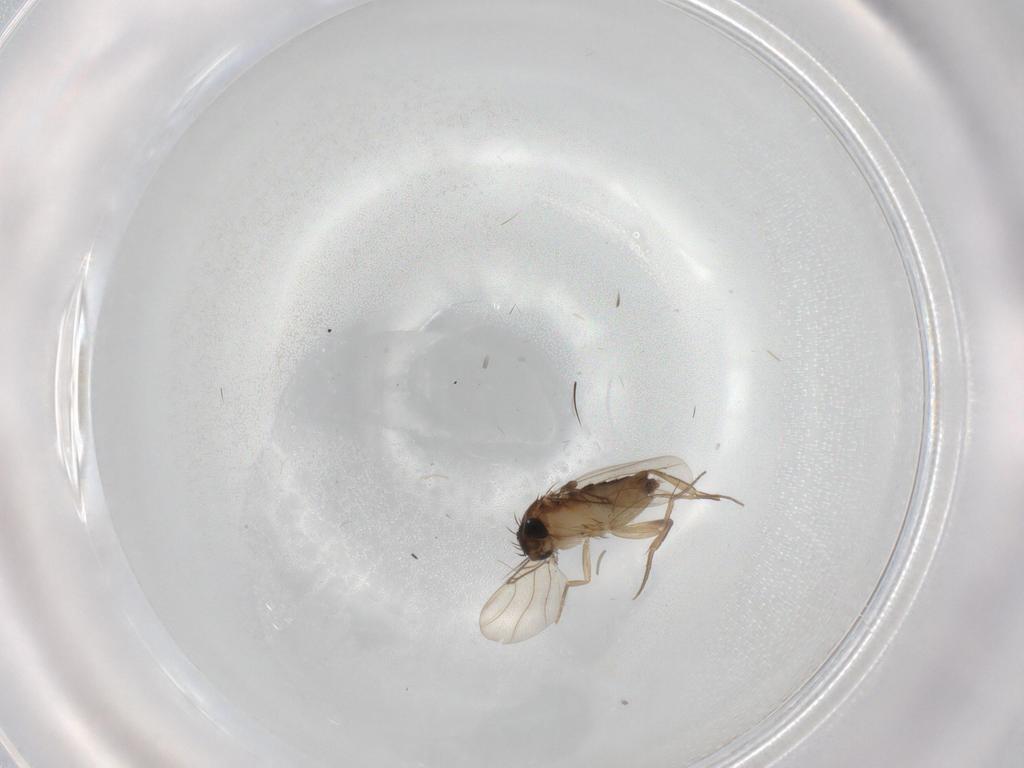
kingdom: Animalia
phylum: Arthropoda
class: Insecta
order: Diptera
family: Phoridae
